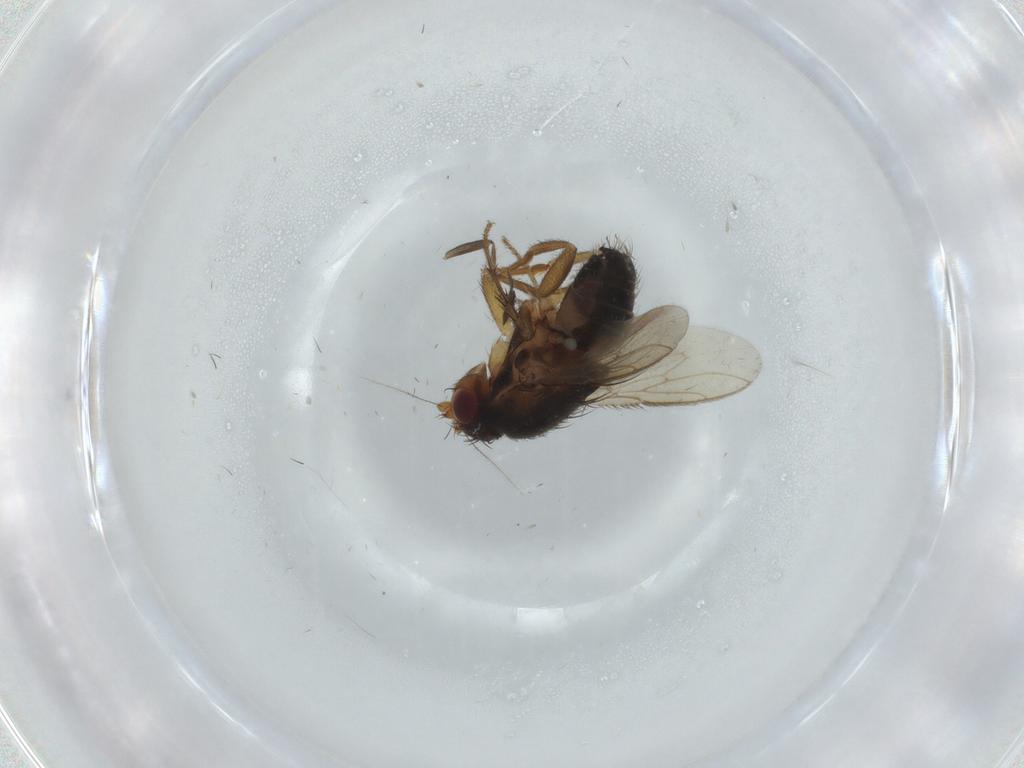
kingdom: Animalia
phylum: Arthropoda
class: Insecta
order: Diptera
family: Sphaeroceridae
